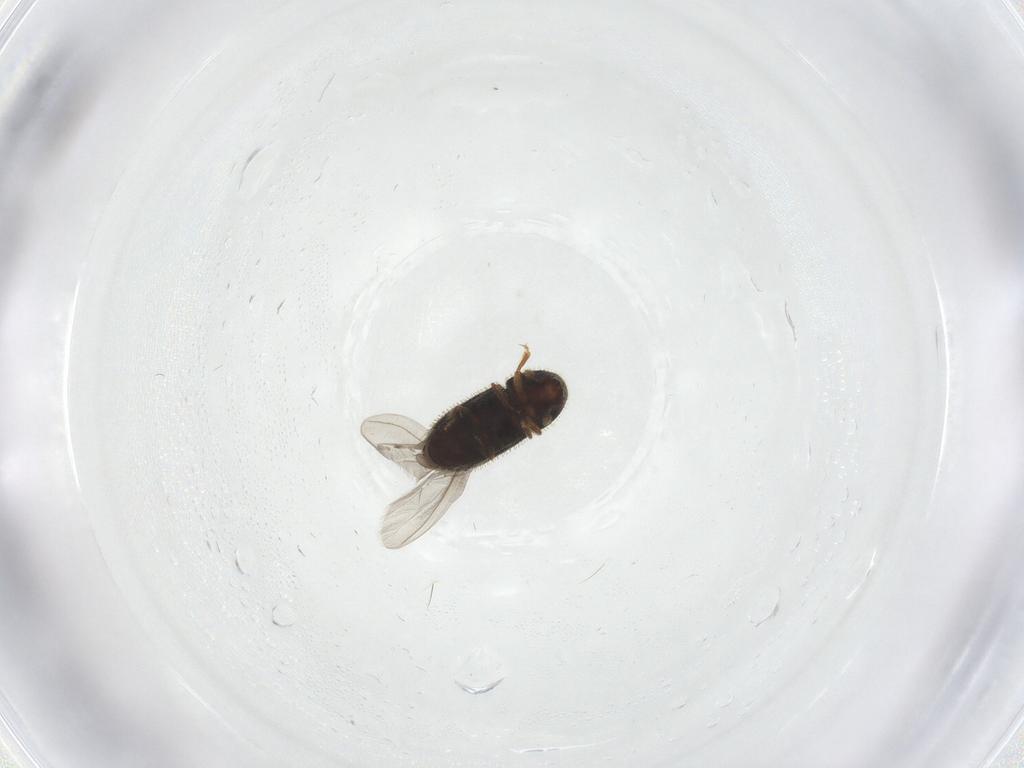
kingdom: Animalia
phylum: Arthropoda
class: Insecta
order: Coleoptera
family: Curculionidae
